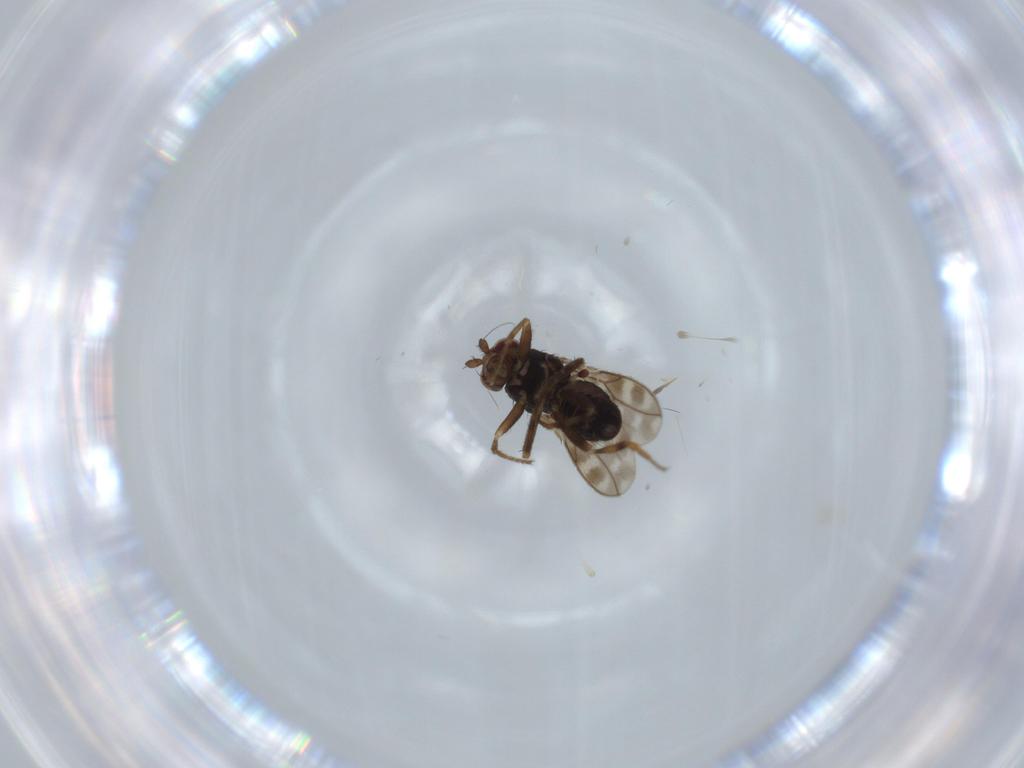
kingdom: Animalia
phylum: Arthropoda
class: Insecta
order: Diptera
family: Sphaeroceridae
